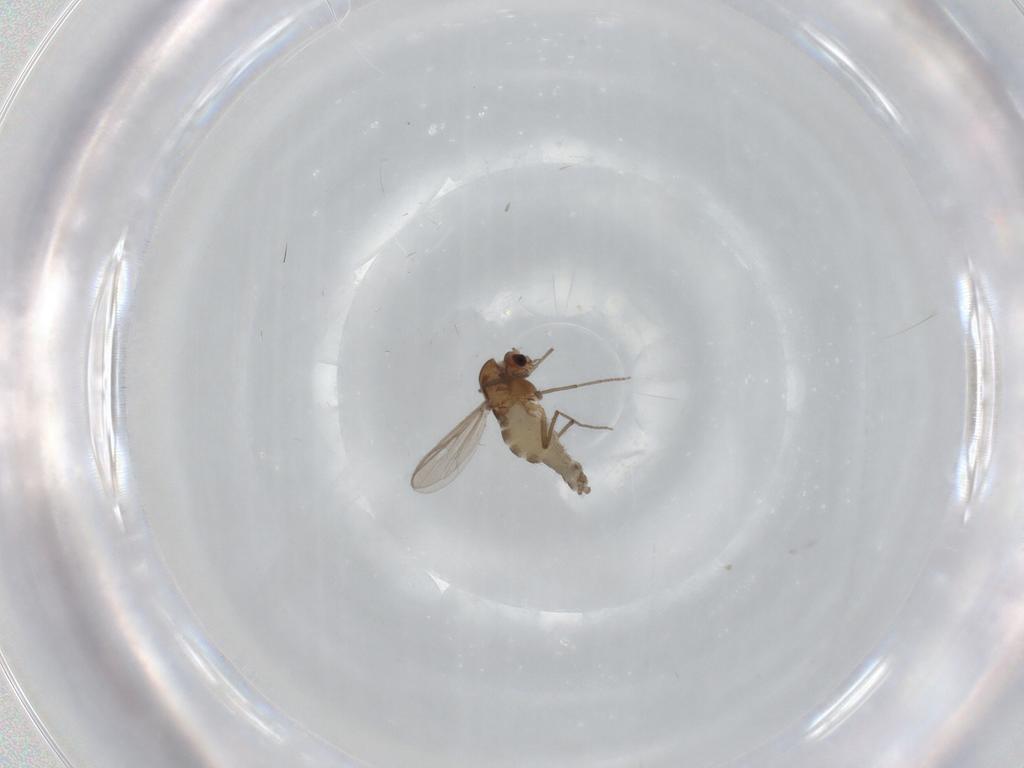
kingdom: Animalia
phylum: Arthropoda
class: Insecta
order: Diptera
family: Chironomidae
